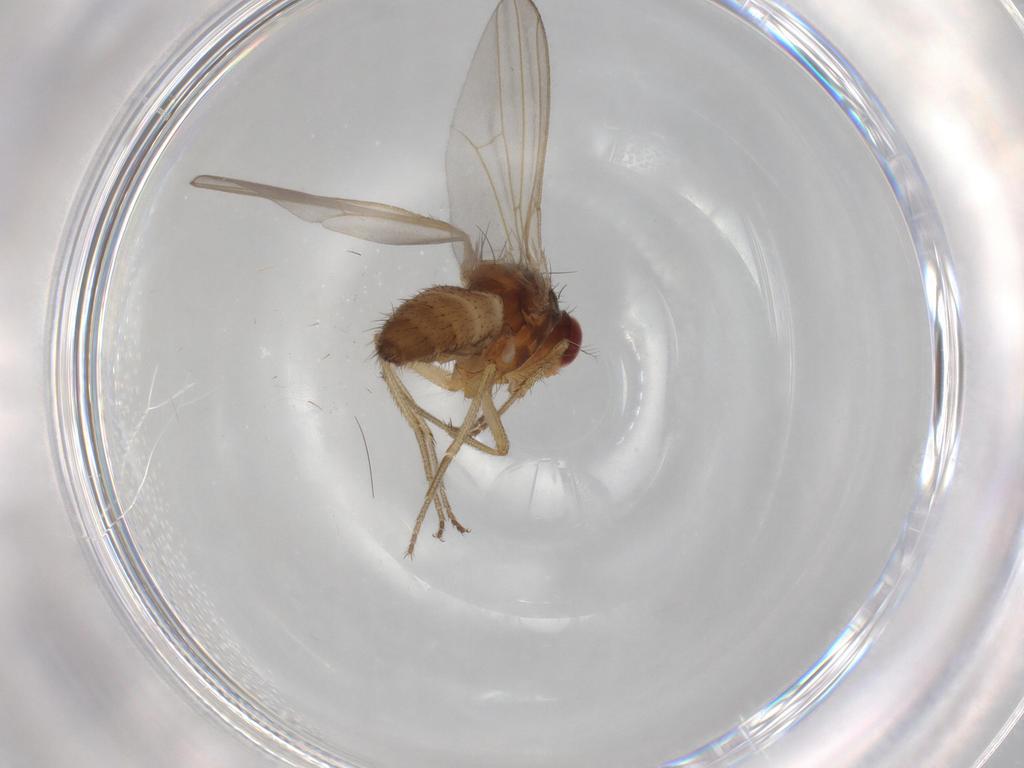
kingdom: Animalia
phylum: Arthropoda
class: Insecta
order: Diptera
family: Drosophilidae
